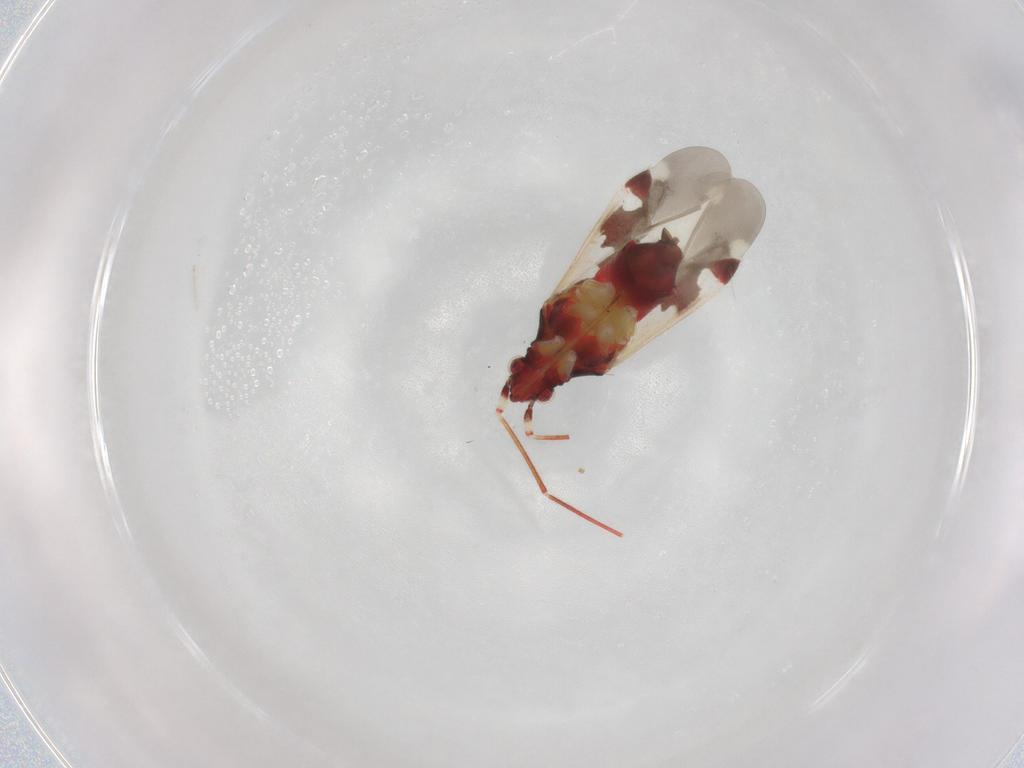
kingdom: Animalia
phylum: Arthropoda
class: Insecta
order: Hemiptera
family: Miridae
